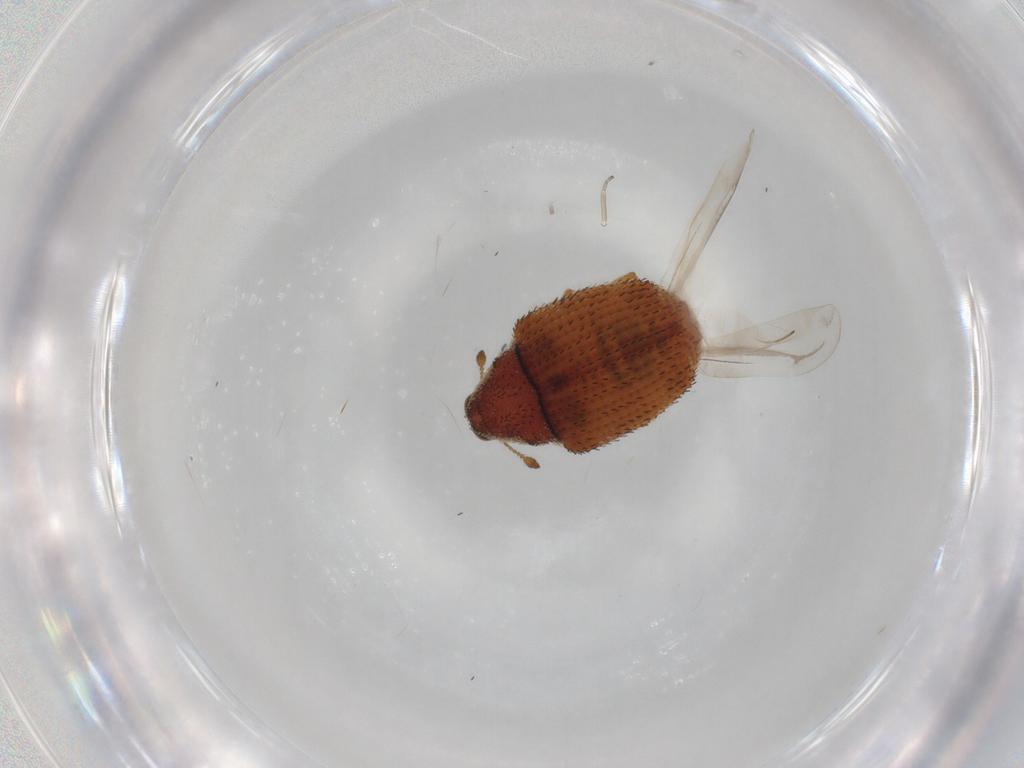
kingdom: Animalia
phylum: Arthropoda
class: Insecta
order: Coleoptera
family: Curculionidae
